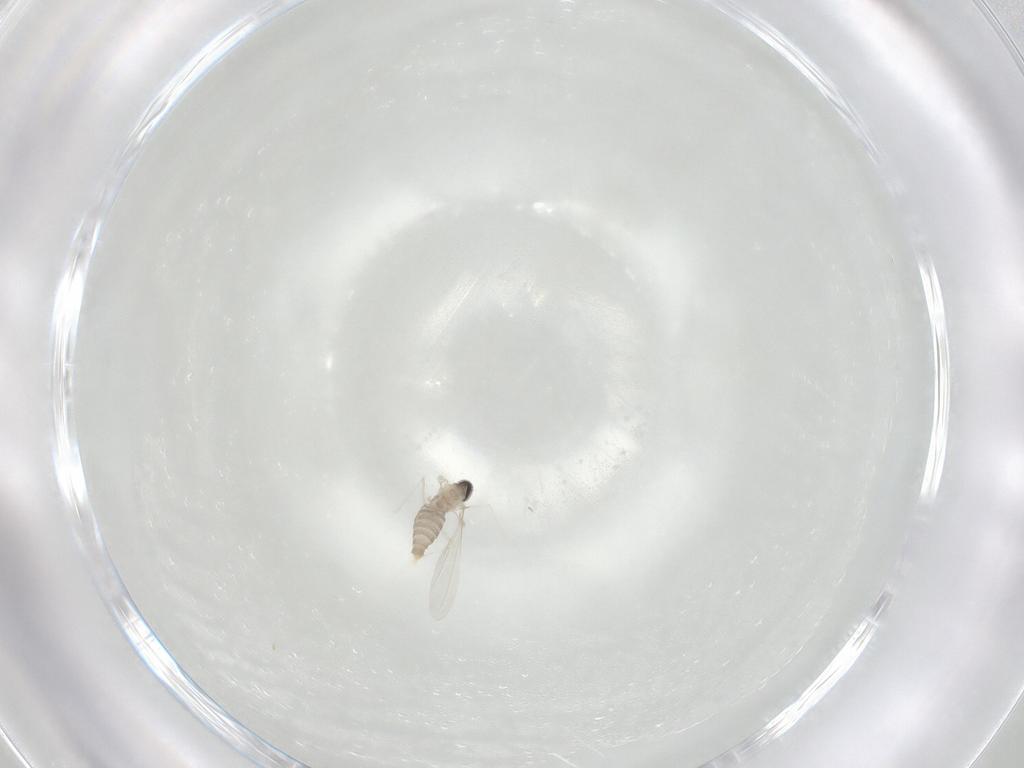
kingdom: Animalia
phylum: Arthropoda
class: Insecta
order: Diptera
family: Cecidomyiidae
